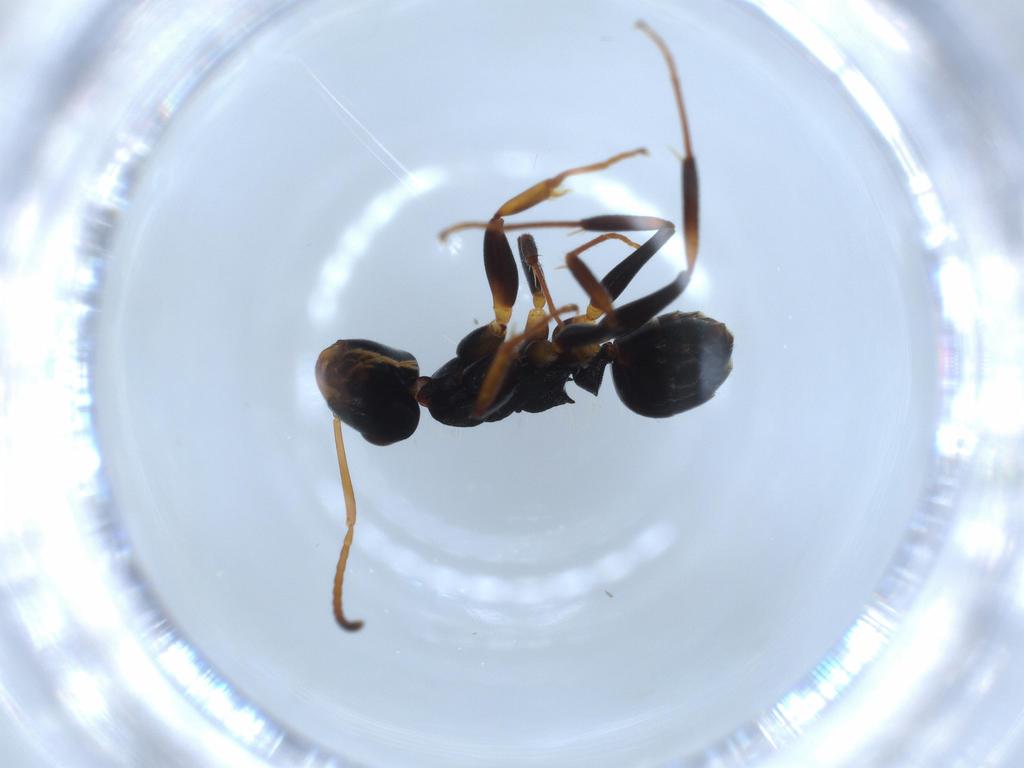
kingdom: Animalia
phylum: Arthropoda
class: Insecta
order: Hymenoptera
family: Formicidae
